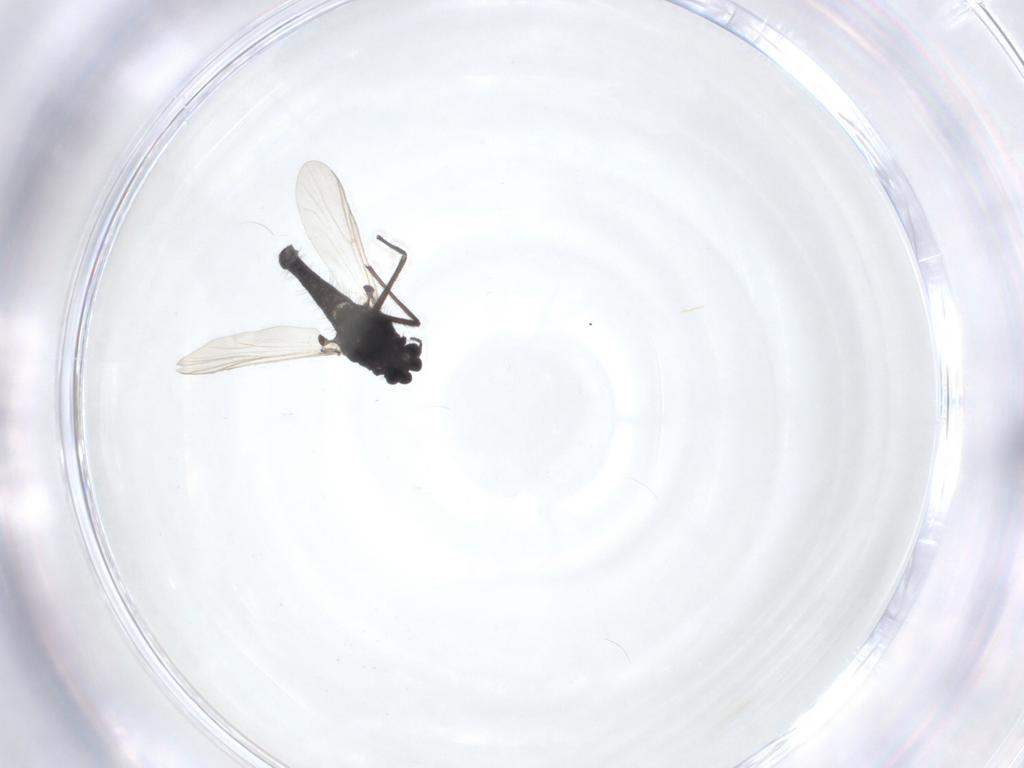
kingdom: Animalia
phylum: Arthropoda
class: Insecta
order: Diptera
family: Chironomidae
